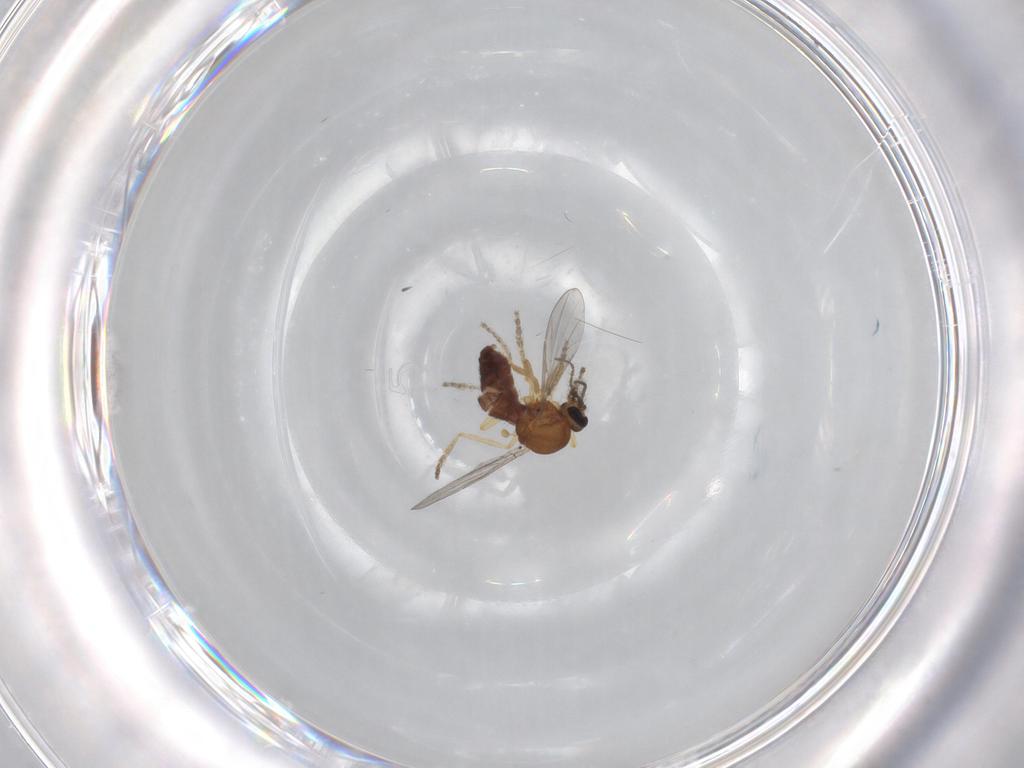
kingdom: Animalia
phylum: Arthropoda
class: Insecta
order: Diptera
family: Ceratopogonidae
